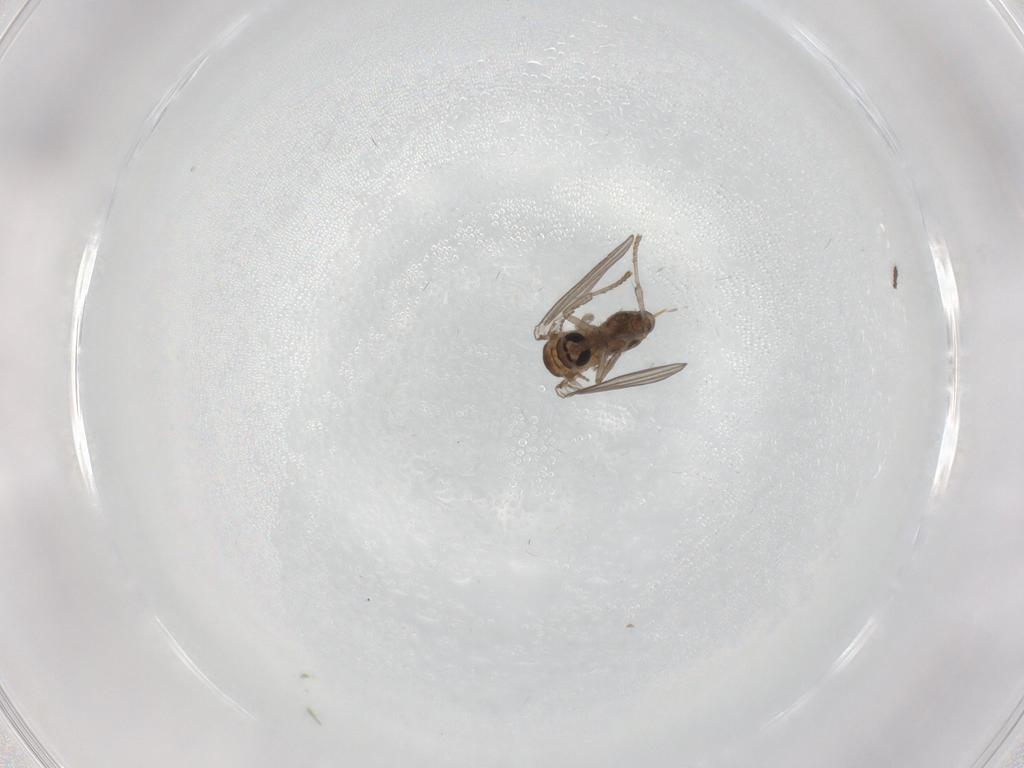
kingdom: Animalia
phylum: Arthropoda
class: Insecta
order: Diptera
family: Psychodidae
